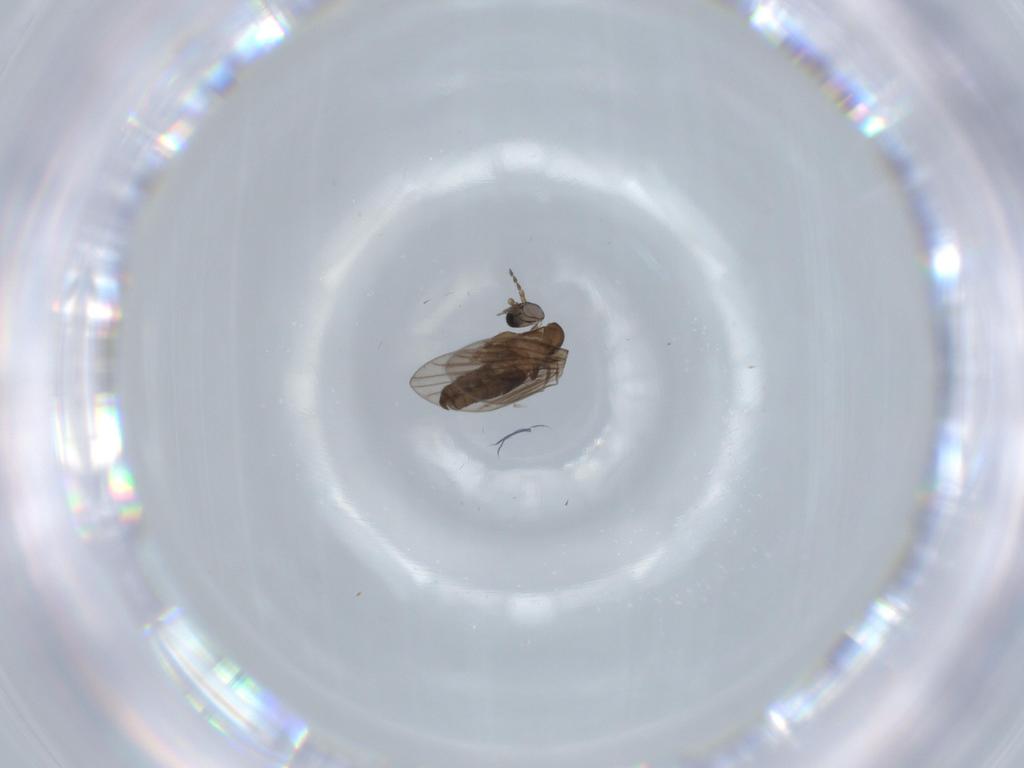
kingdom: Animalia
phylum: Arthropoda
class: Insecta
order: Diptera
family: Psychodidae
